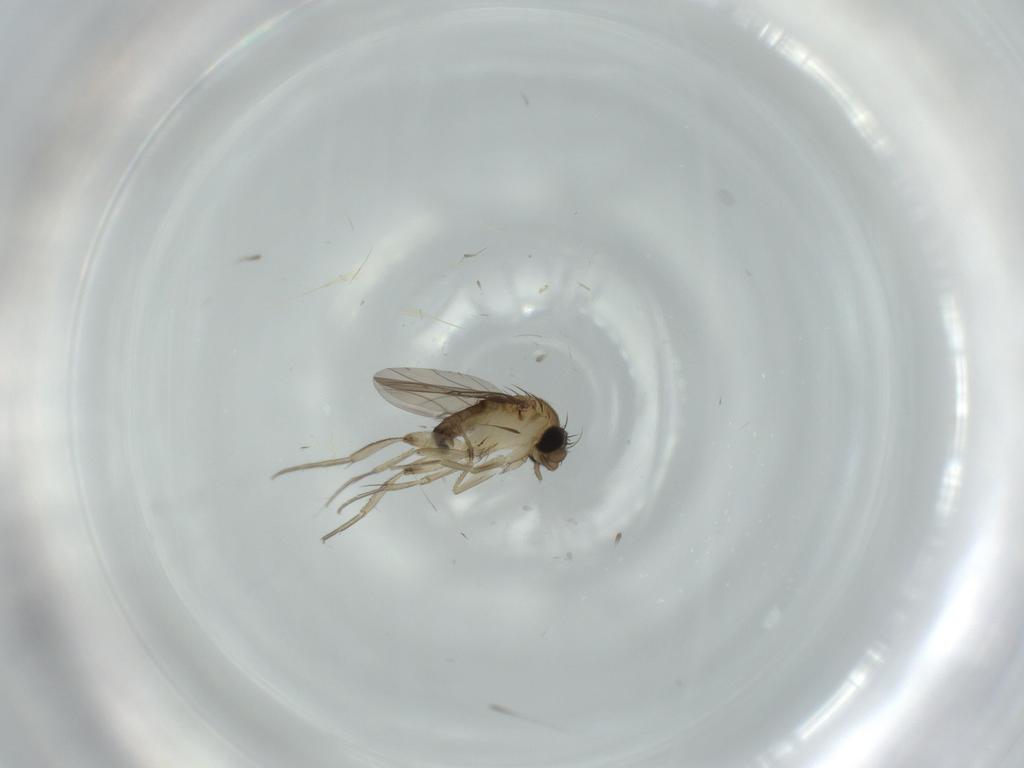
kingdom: Animalia
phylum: Arthropoda
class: Insecta
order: Diptera
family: Phoridae
